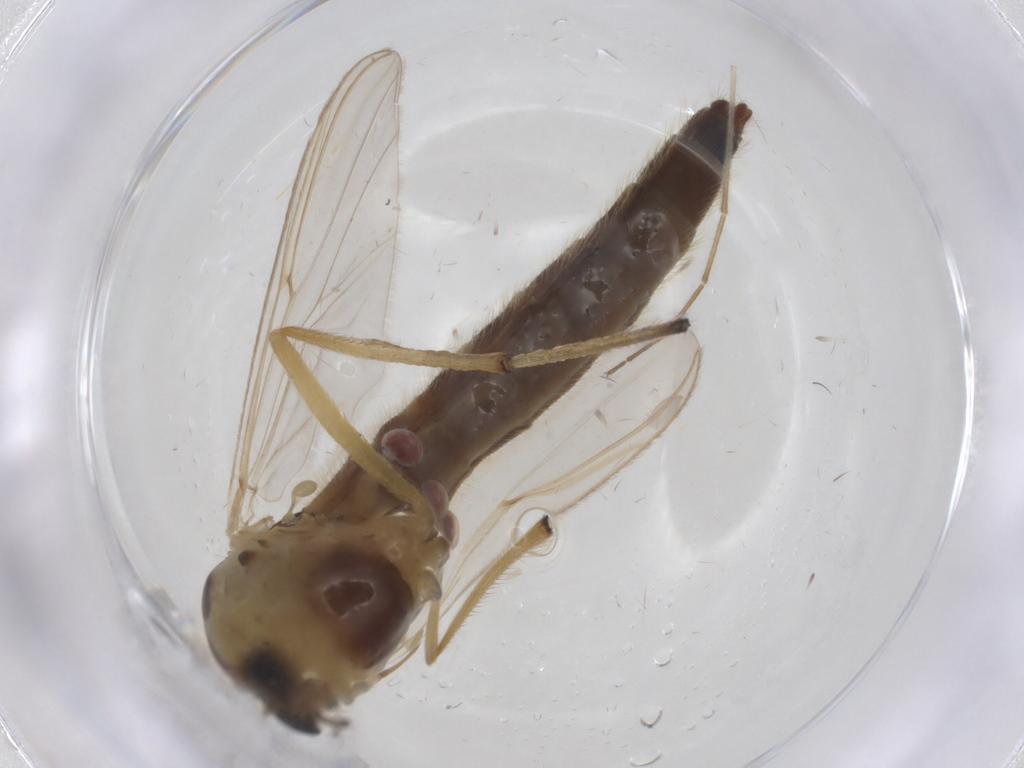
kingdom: Animalia
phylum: Arthropoda
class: Insecta
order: Diptera
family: Chironomidae
